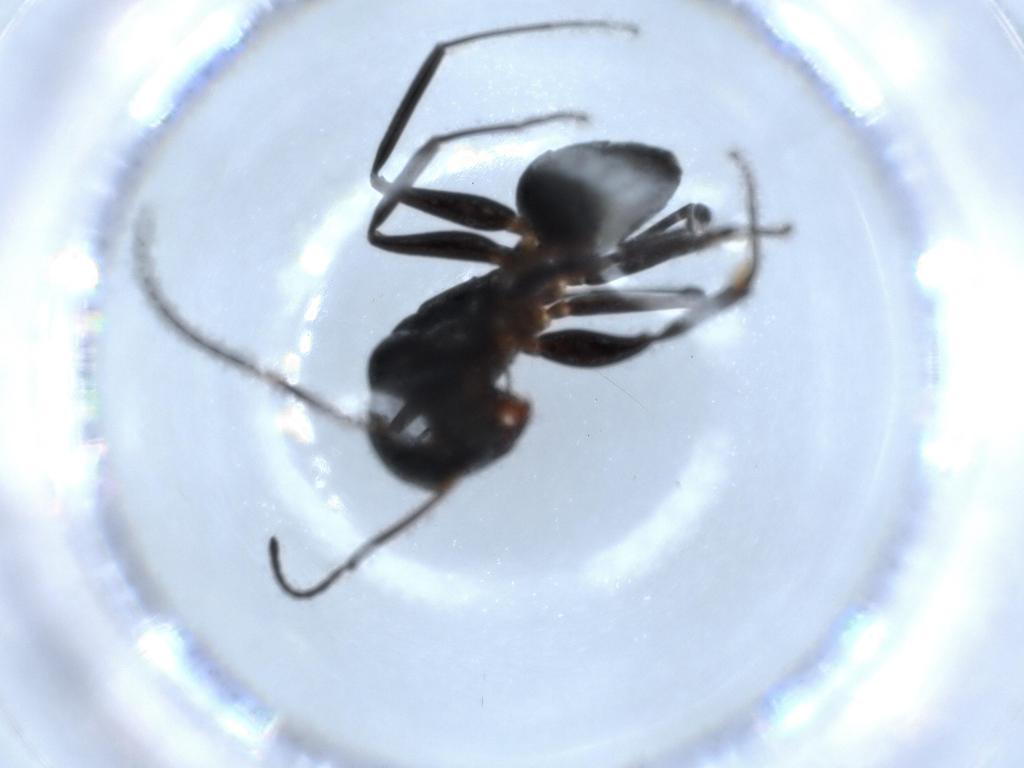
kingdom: Animalia
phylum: Arthropoda
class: Insecta
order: Hymenoptera
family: Formicidae
